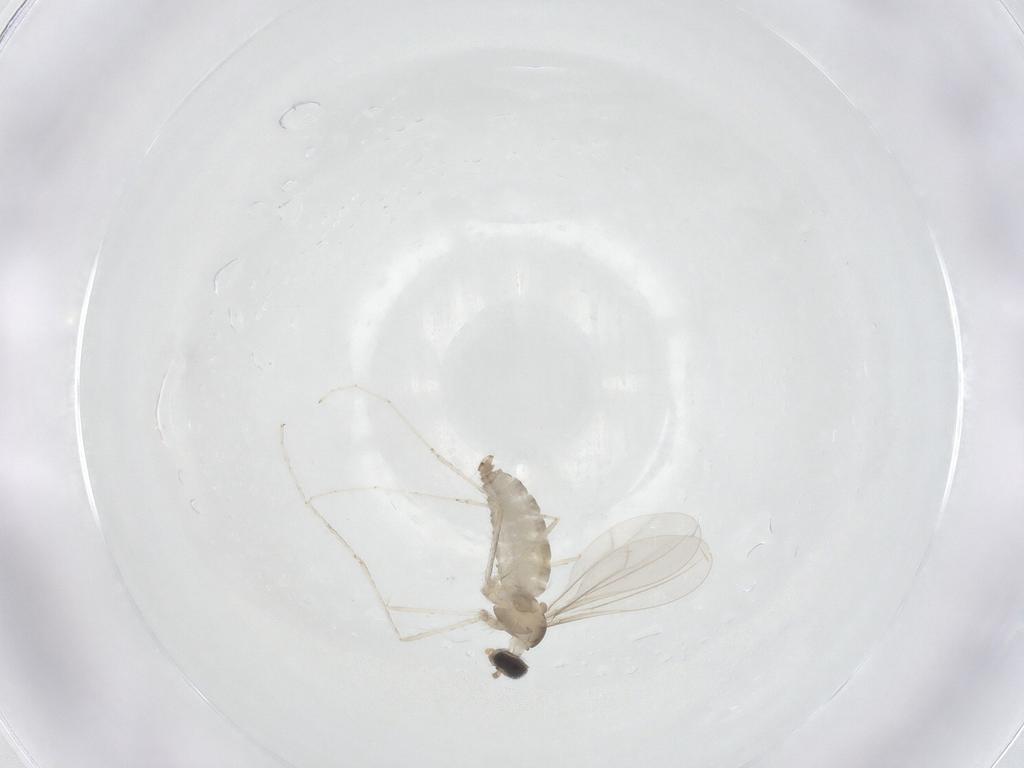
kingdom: Animalia
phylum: Arthropoda
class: Insecta
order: Diptera
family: Cecidomyiidae
